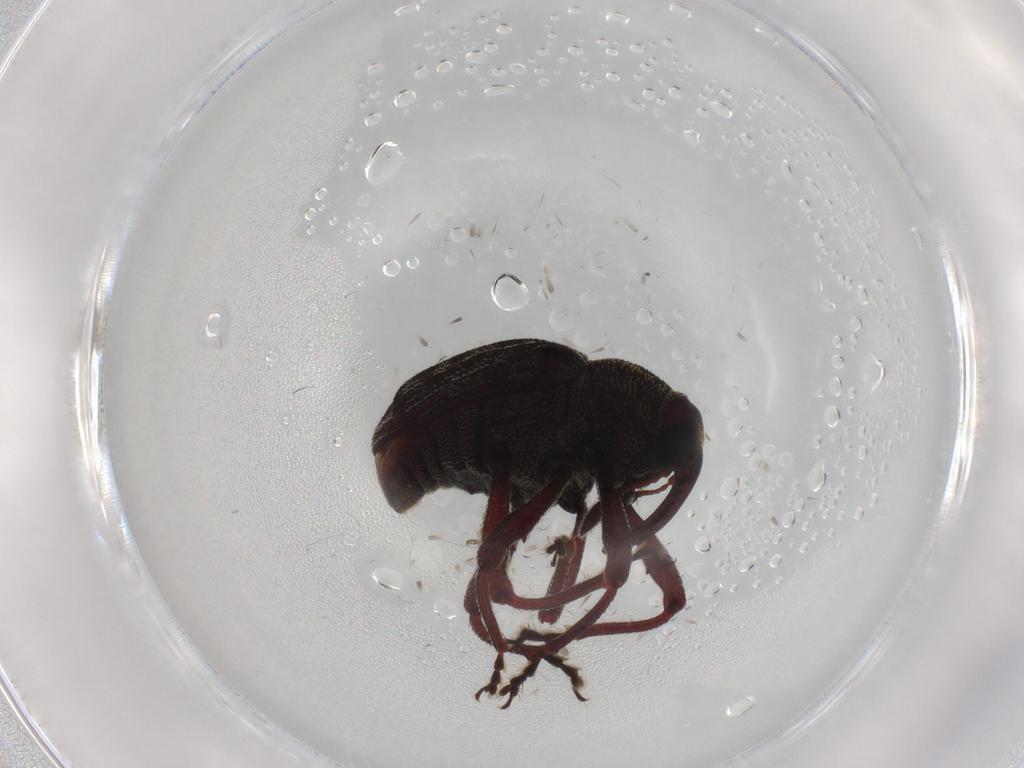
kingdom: Animalia
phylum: Arthropoda
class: Insecta
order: Coleoptera
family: Curculionidae
